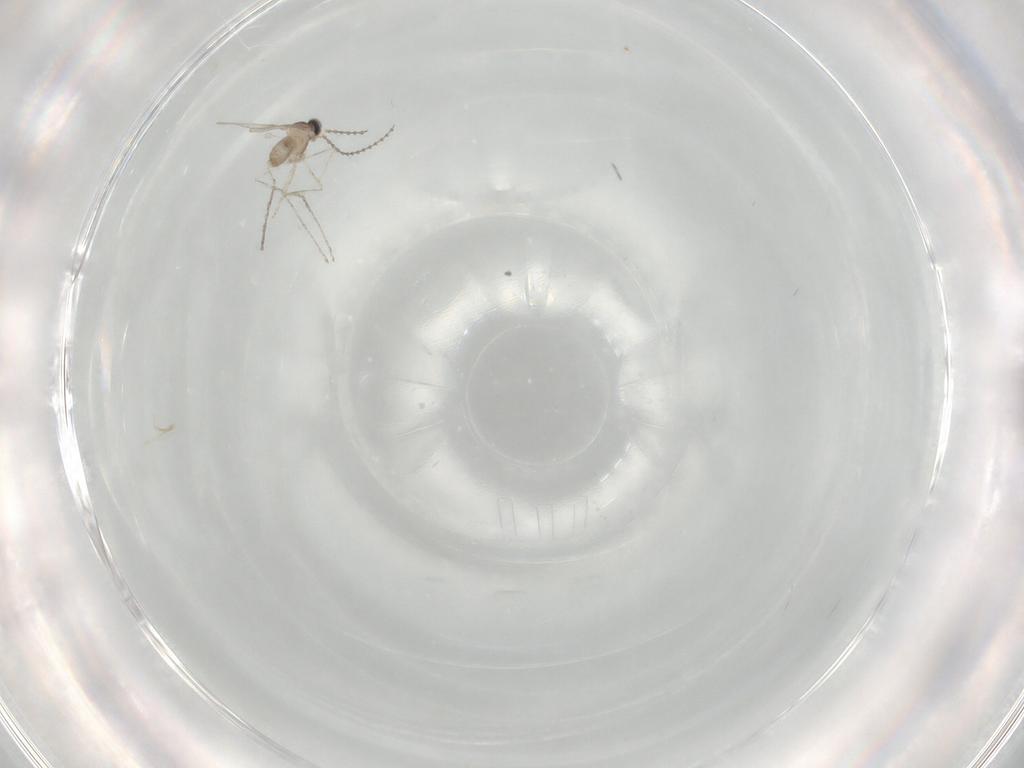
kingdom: Animalia
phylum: Arthropoda
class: Insecta
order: Diptera
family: Cecidomyiidae
